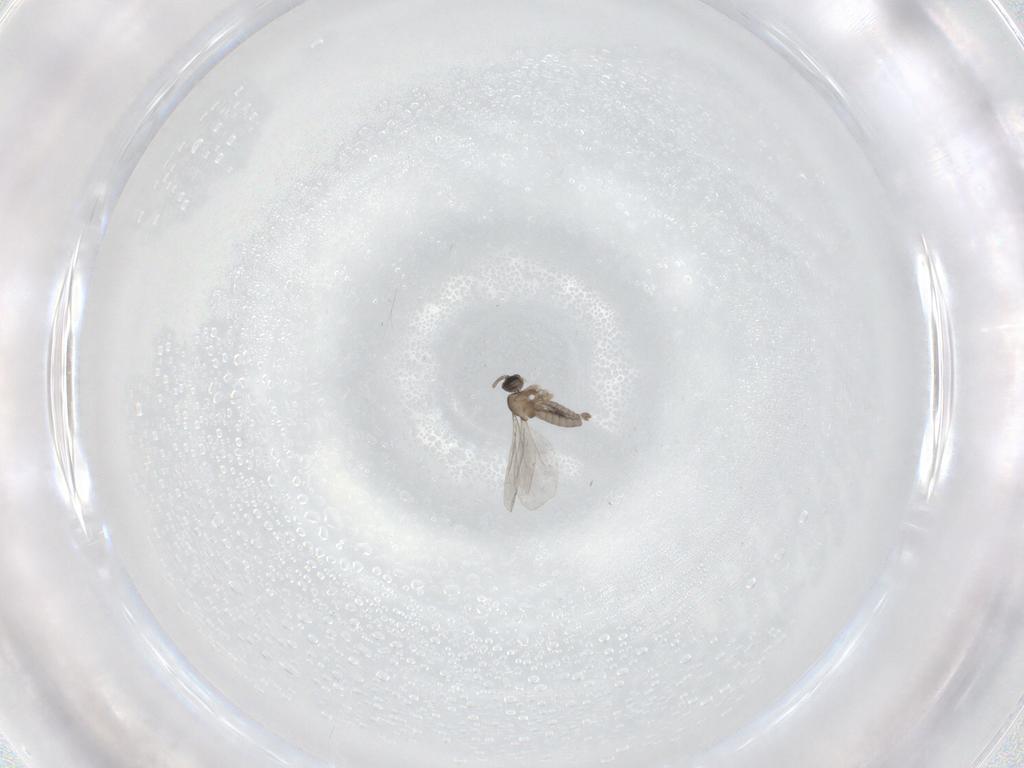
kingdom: Animalia
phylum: Arthropoda
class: Insecta
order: Diptera
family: Cecidomyiidae
